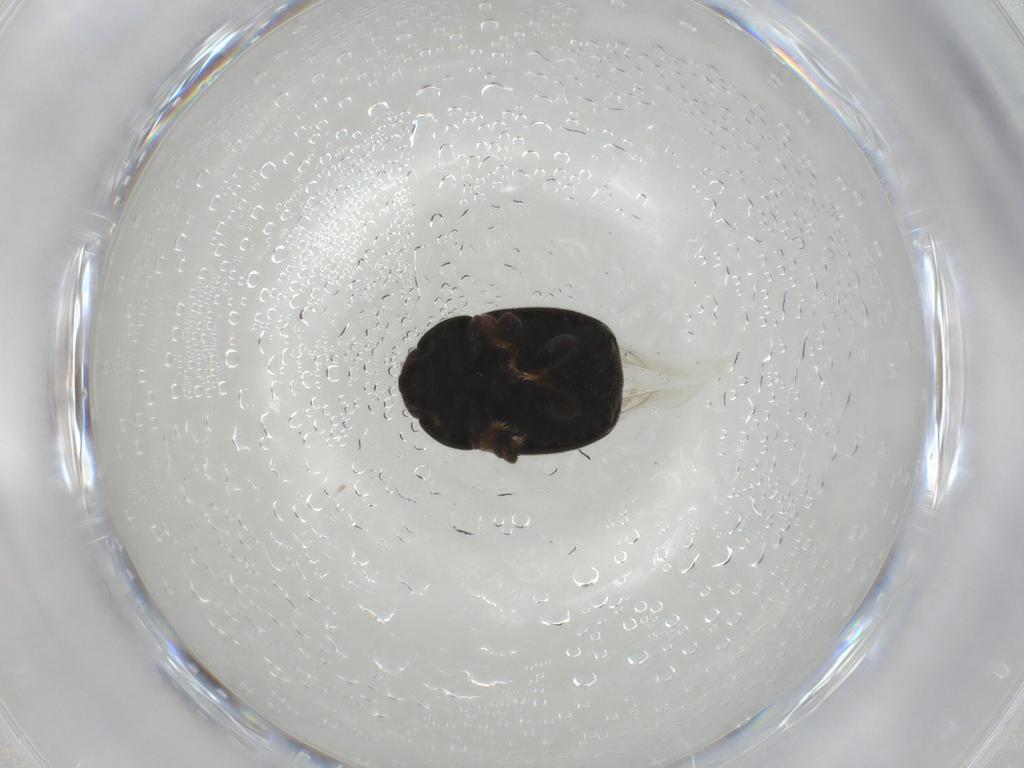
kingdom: Animalia
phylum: Arthropoda
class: Insecta
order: Coleoptera
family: Nitidulidae
